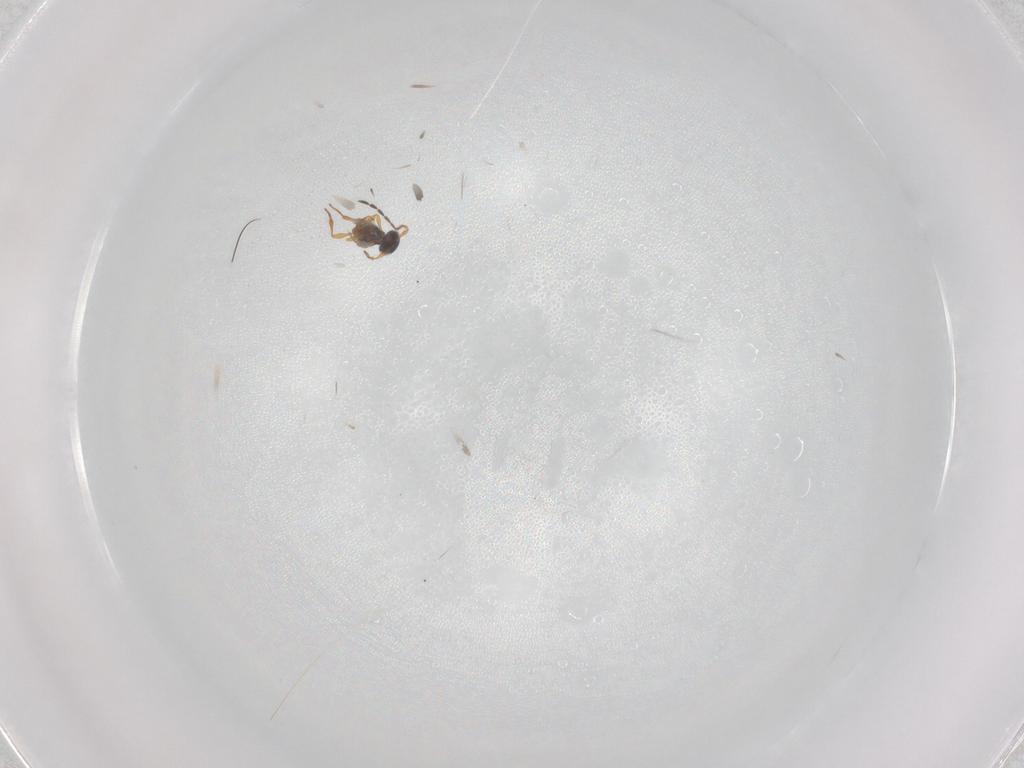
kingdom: Animalia
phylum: Arthropoda
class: Insecta
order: Hymenoptera
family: Platygastridae
